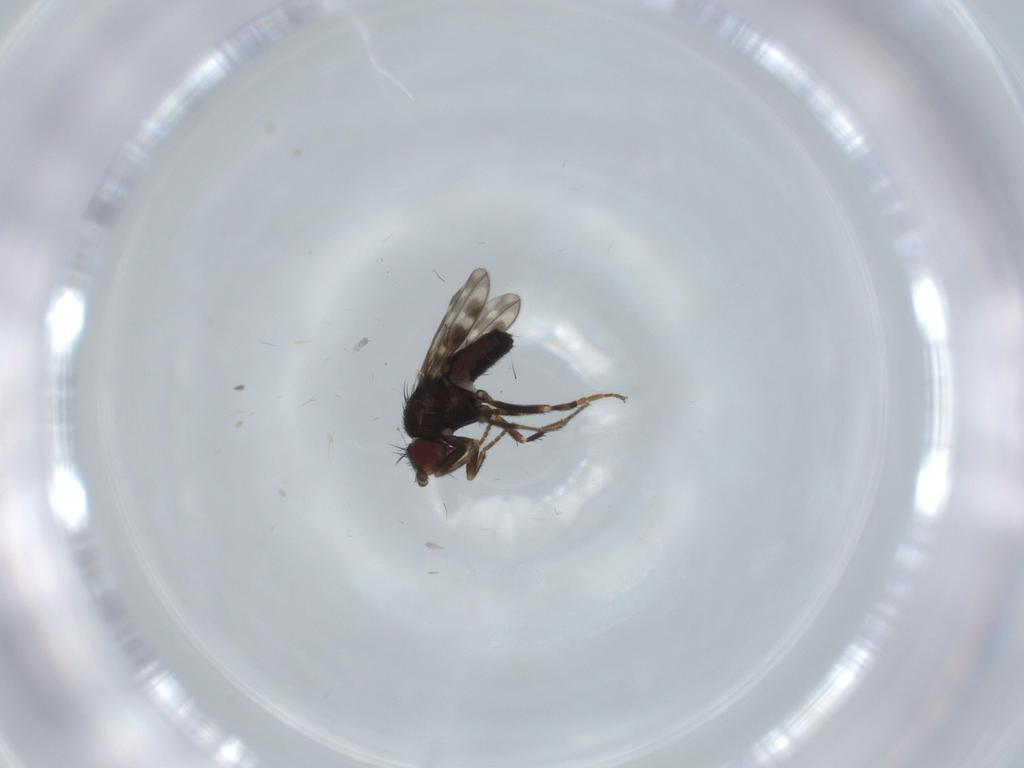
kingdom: Animalia
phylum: Arthropoda
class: Insecta
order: Diptera
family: Sphaeroceridae
